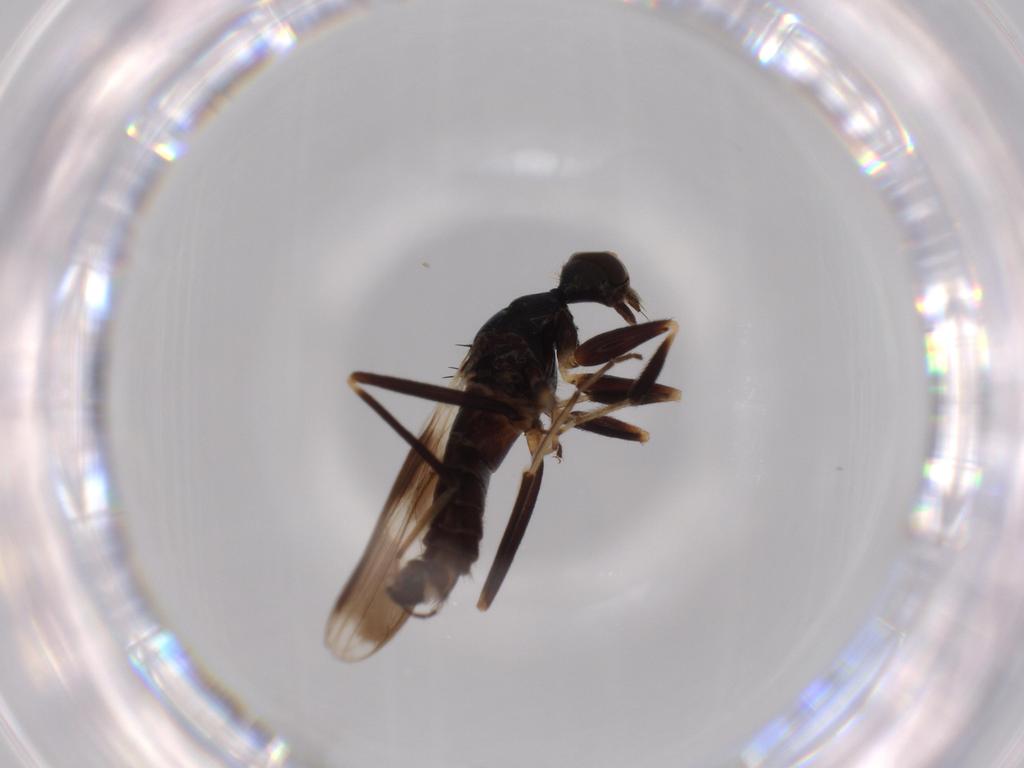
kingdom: Animalia
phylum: Arthropoda
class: Insecta
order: Diptera
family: Hybotidae
